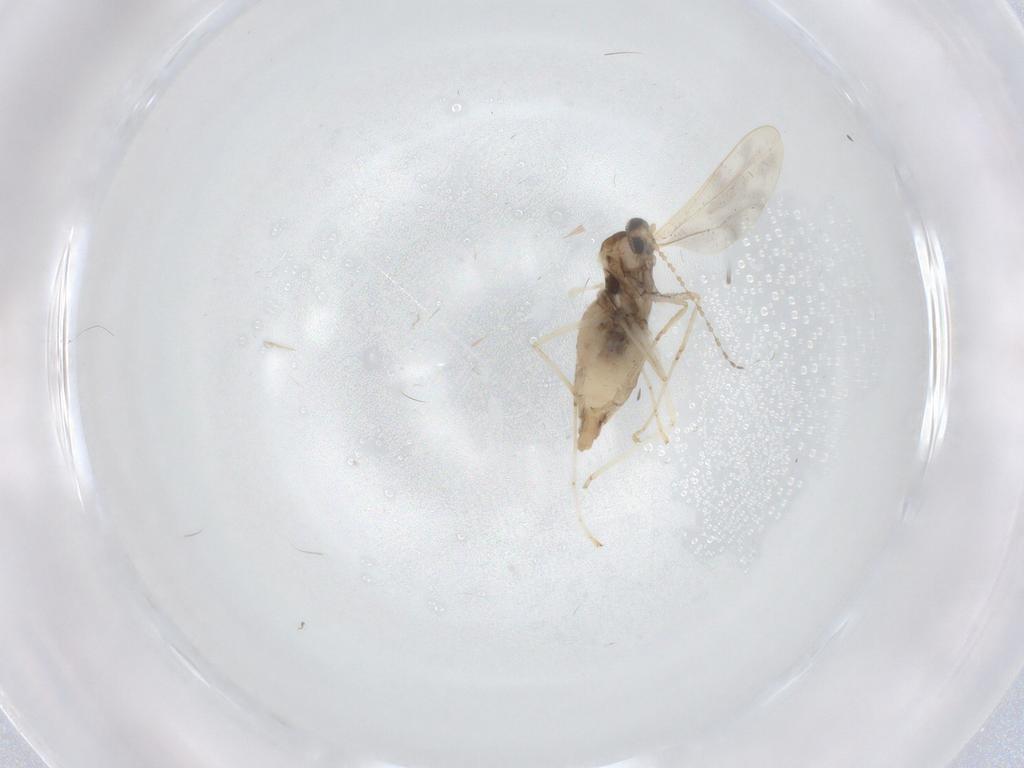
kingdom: Animalia
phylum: Arthropoda
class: Insecta
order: Diptera
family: Cecidomyiidae
